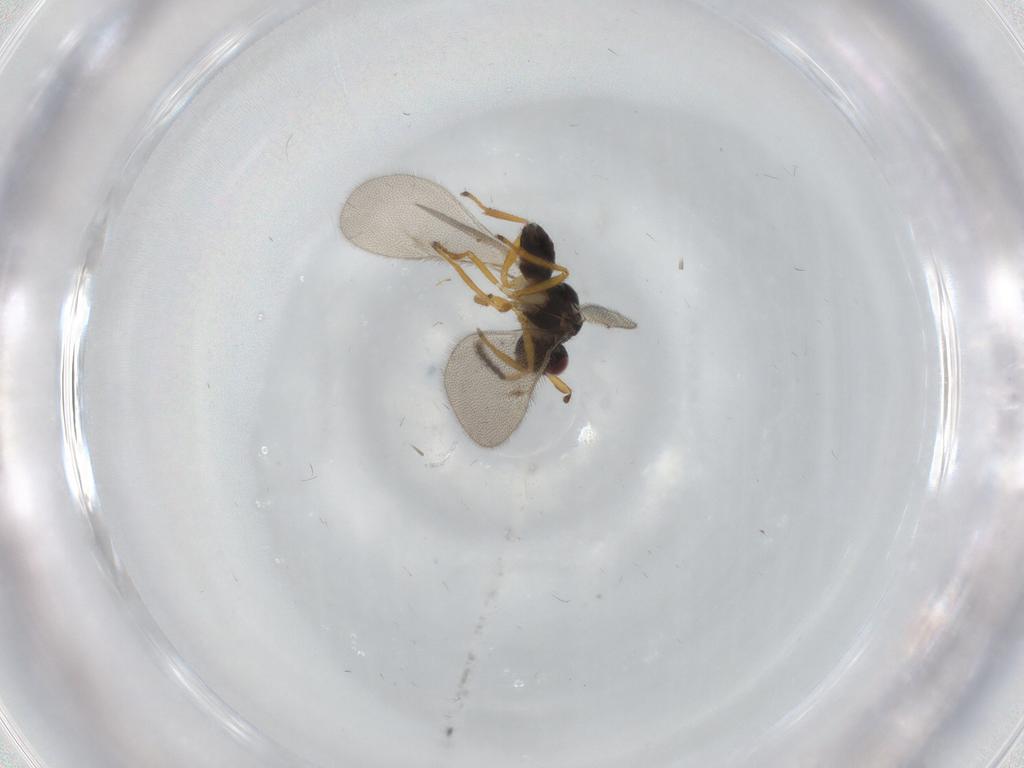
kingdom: Animalia
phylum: Arthropoda
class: Insecta
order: Hymenoptera
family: Eulophidae
